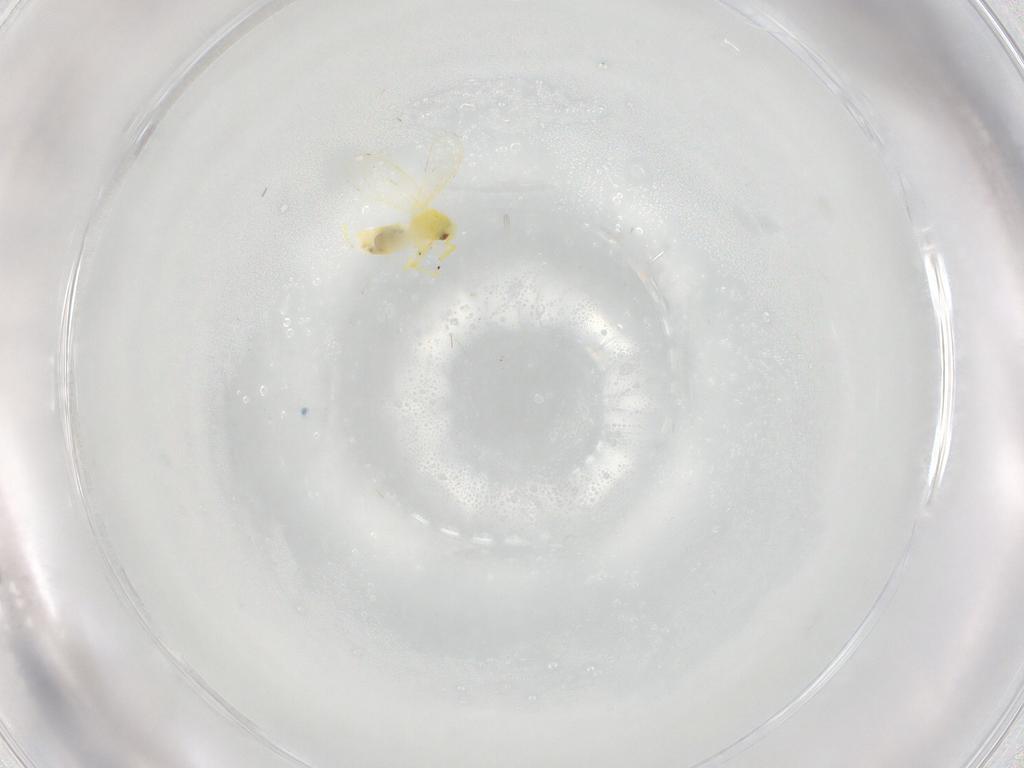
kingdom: Animalia
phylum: Arthropoda
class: Insecta
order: Hemiptera
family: Aleyrodidae
